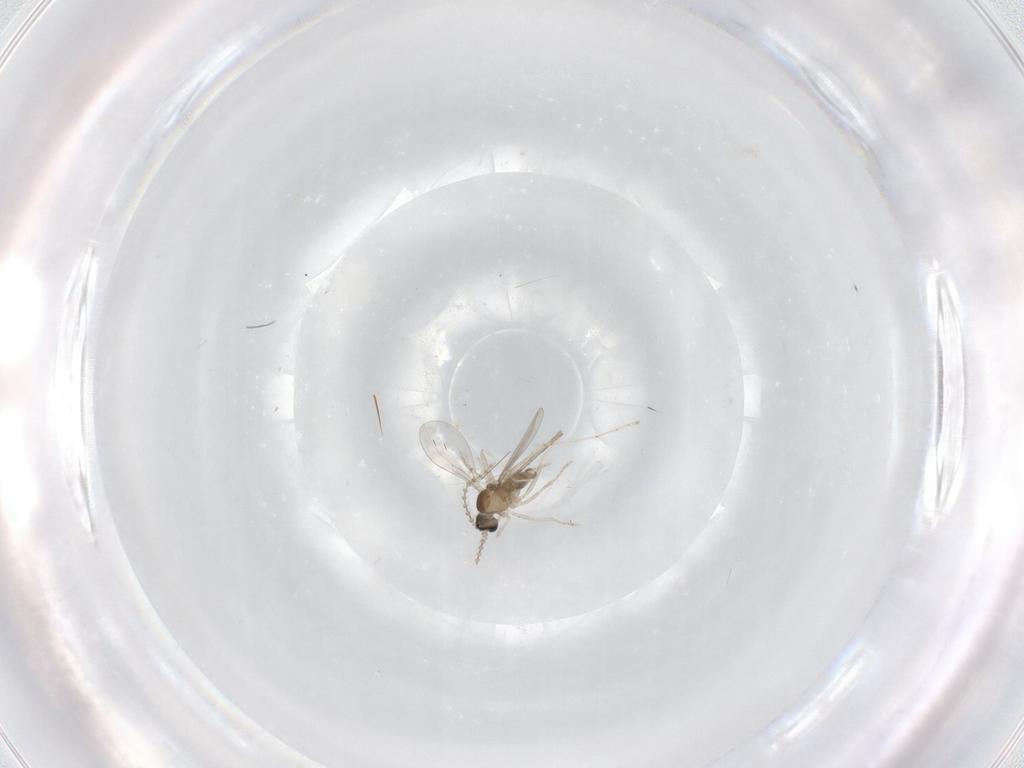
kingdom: Animalia
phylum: Arthropoda
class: Insecta
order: Diptera
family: Cecidomyiidae
